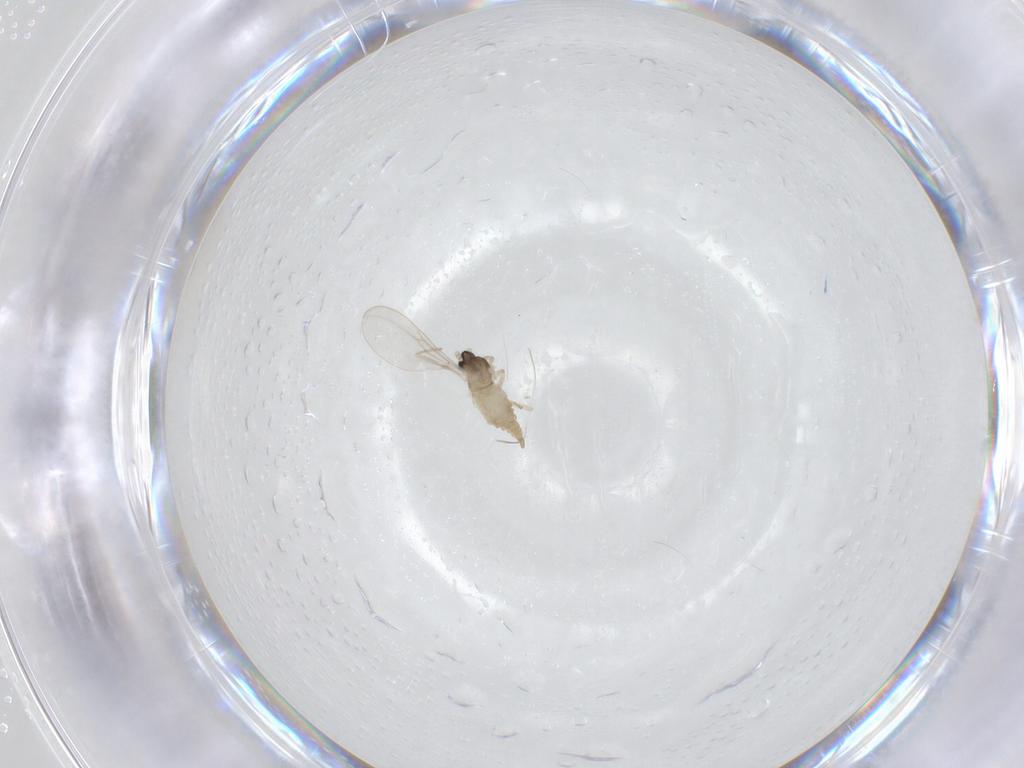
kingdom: Animalia
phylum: Arthropoda
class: Insecta
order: Diptera
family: Cecidomyiidae
